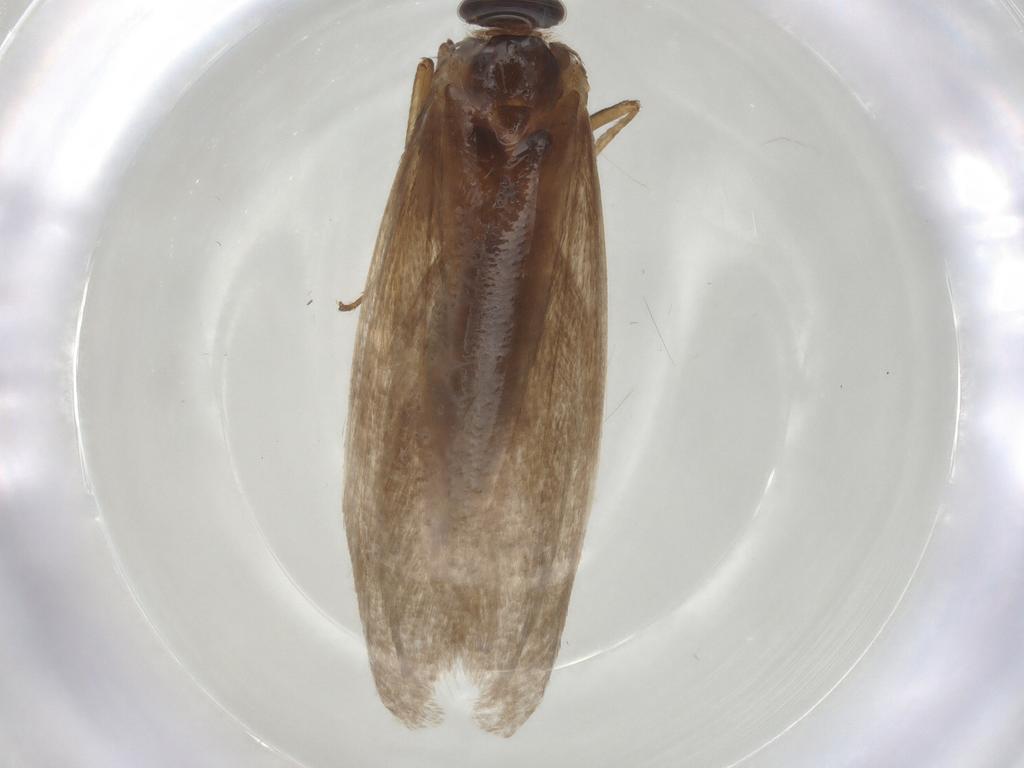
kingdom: Animalia
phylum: Arthropoda
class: Insecta
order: Lepidoptera
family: Adelidae
